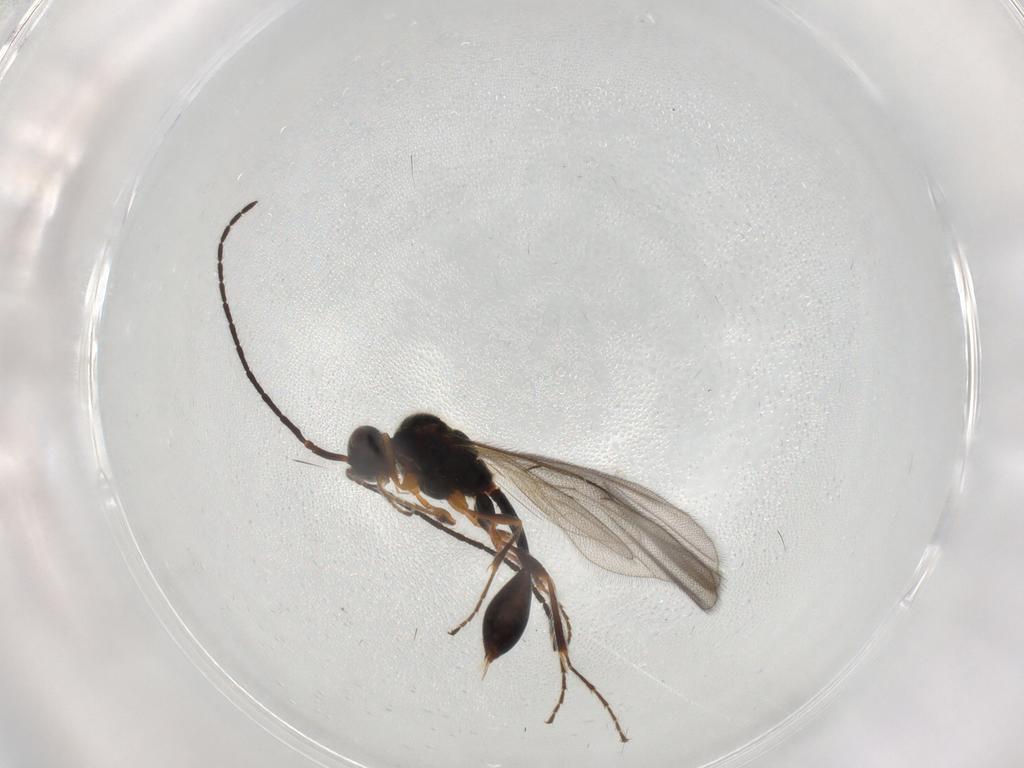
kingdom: Animalia
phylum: Arthropoda
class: Insecta
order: Hymenoptera
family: Diapriidae
